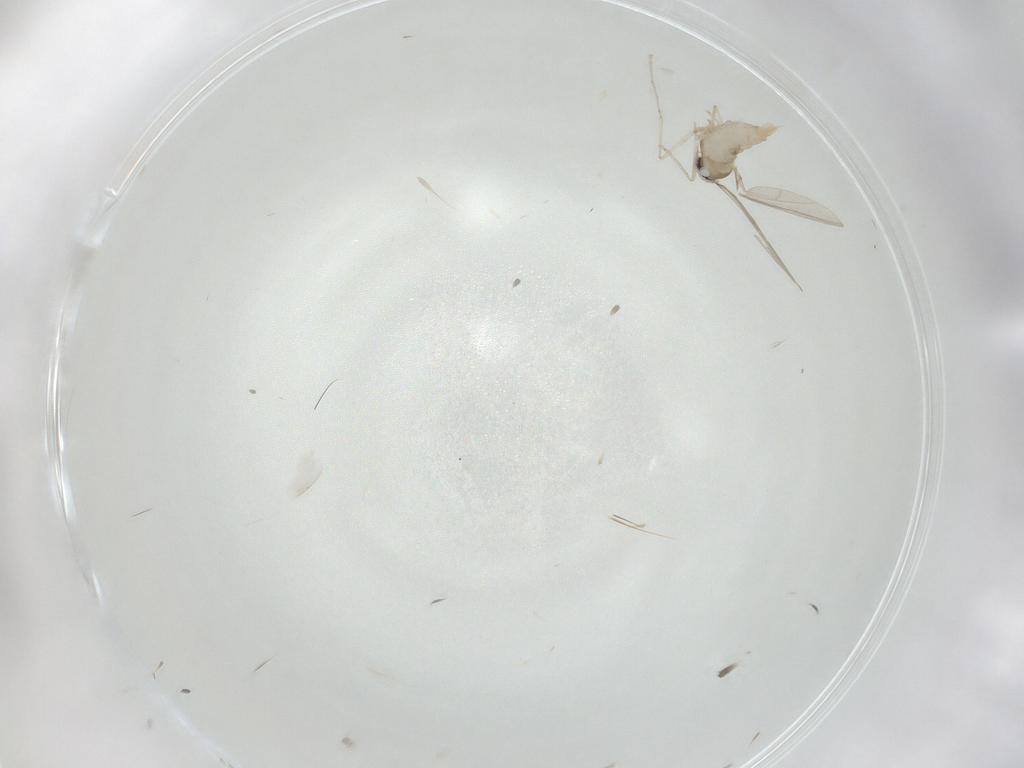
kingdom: Animalia
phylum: Arthropoda
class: Insecta
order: Diptera
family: Cecidomyiidae
